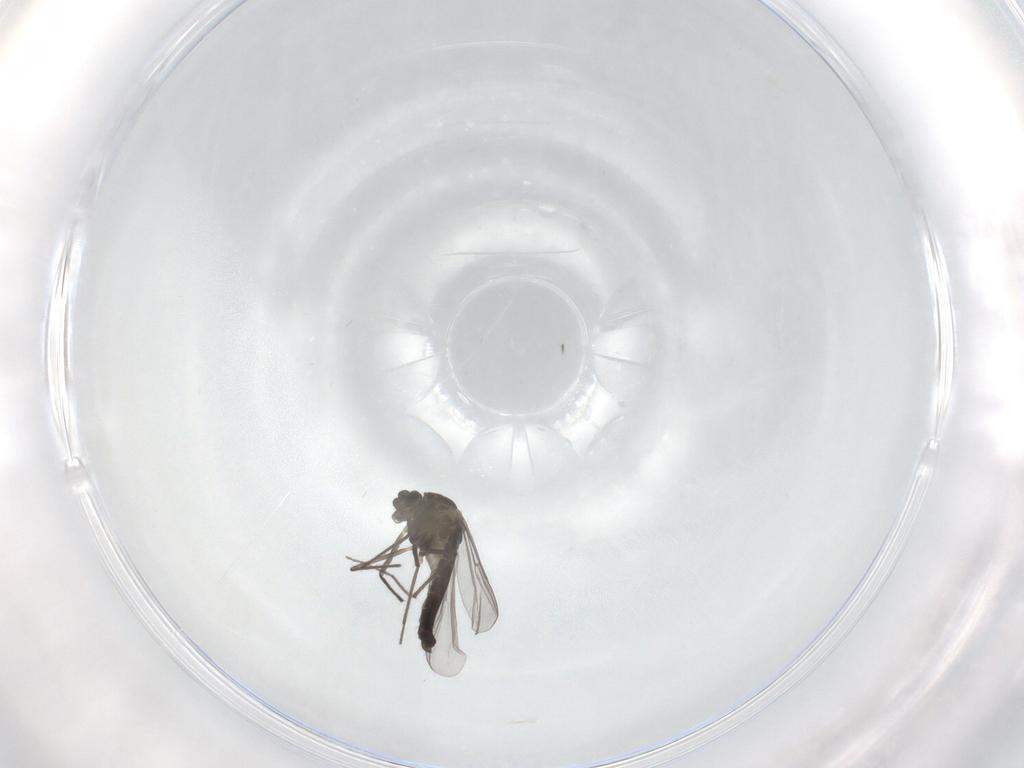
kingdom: Animalia
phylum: Arthropoda
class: Insecta
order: Diptera
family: Chironomidae
